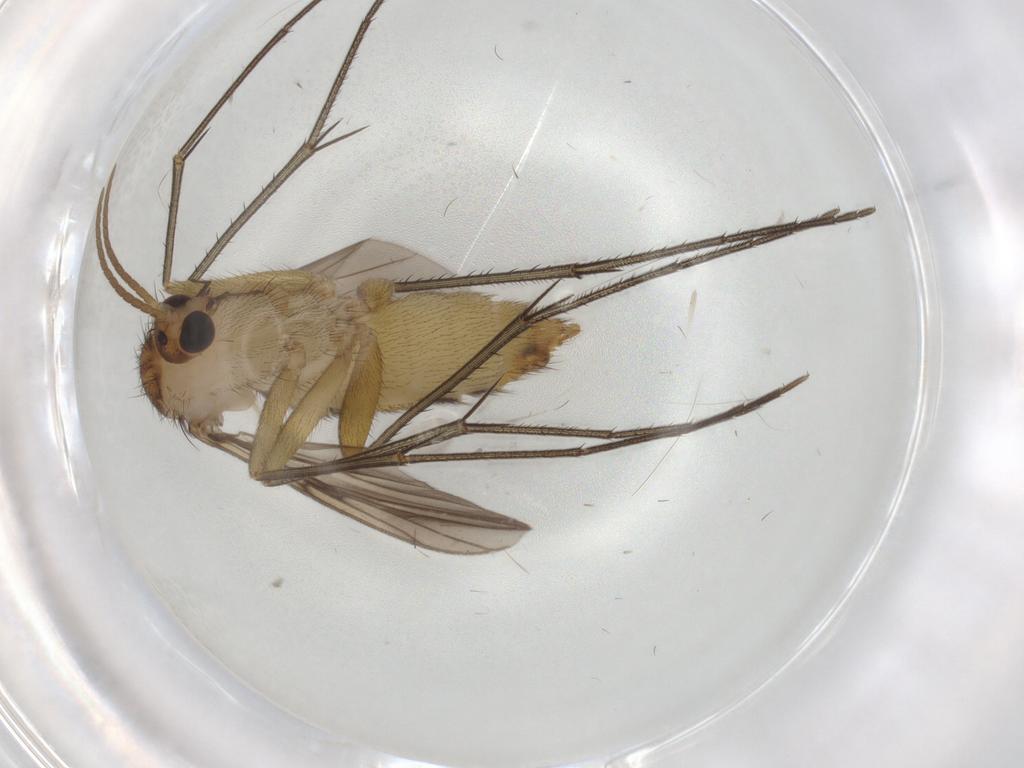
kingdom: Animalia
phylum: Arthropoda
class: Insecta
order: Diptera
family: Mycetophilidae
